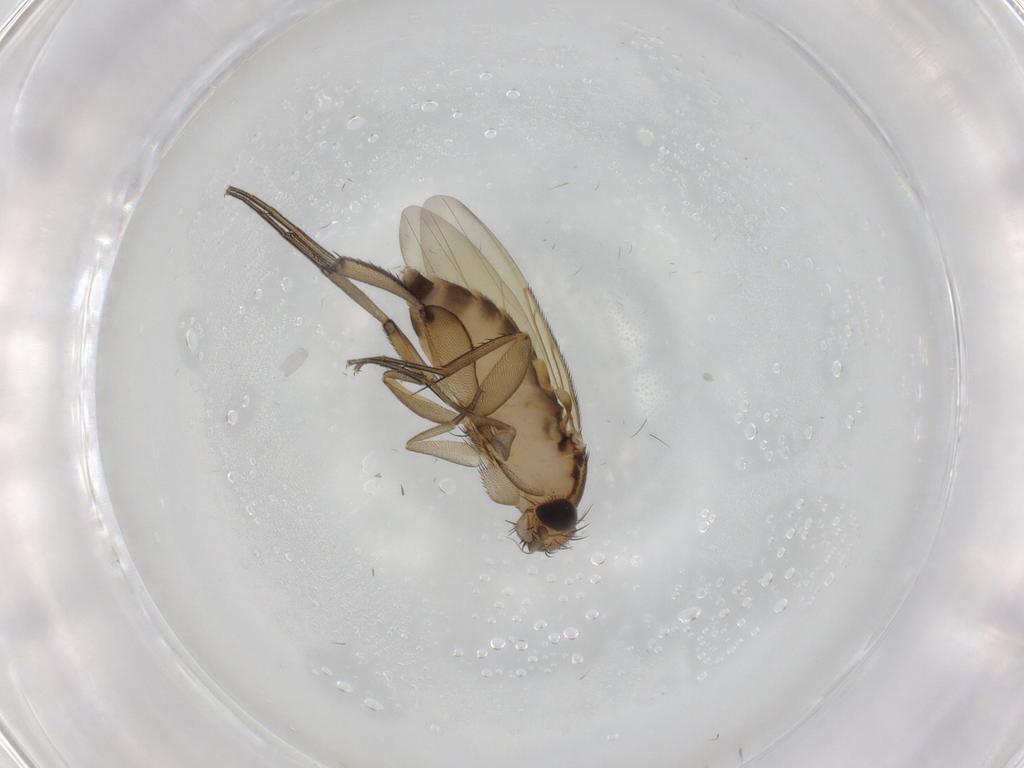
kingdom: Animalia
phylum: Arthropoda
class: Insecta
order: Diptera
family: Phoridae
